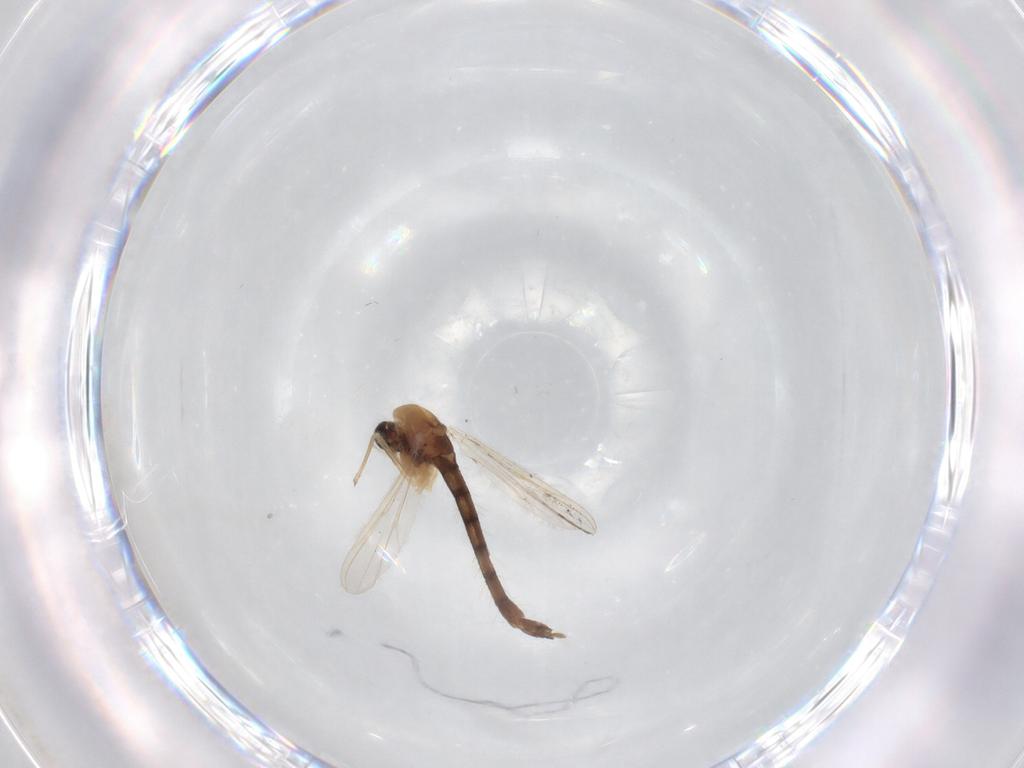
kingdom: Animalia
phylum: Arthropoda
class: Insecta
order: Diptera
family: Chironomidae
